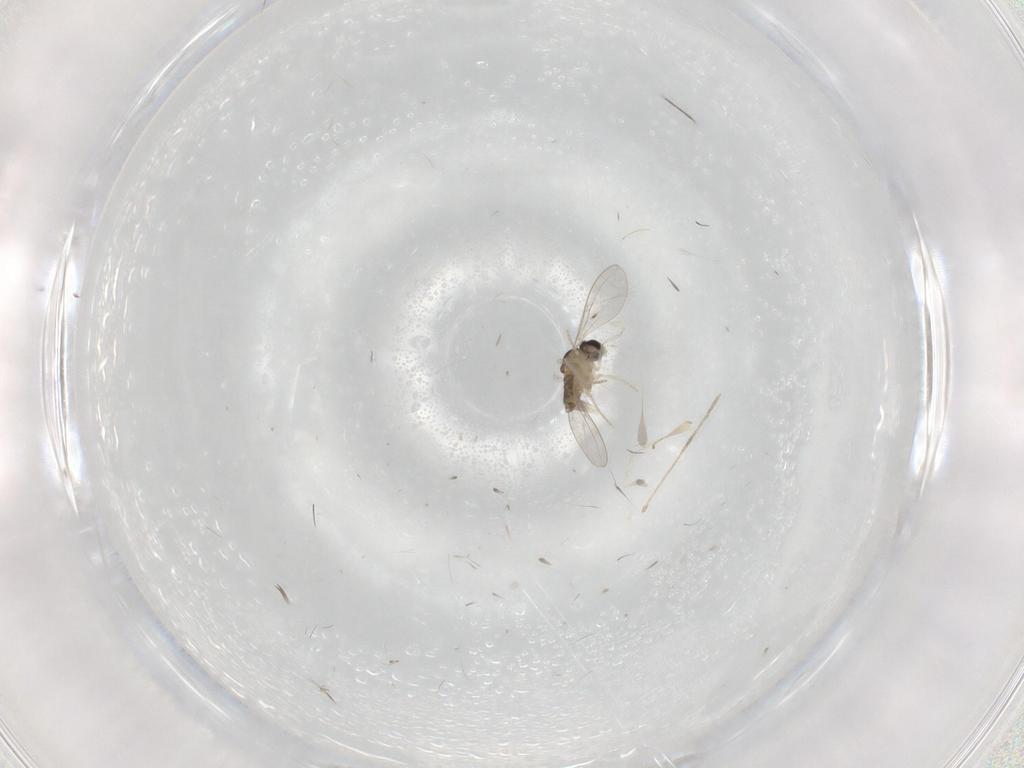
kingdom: Animalia
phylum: Arthropoda
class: Insecta
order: Diptera
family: Cecidomyiidae
